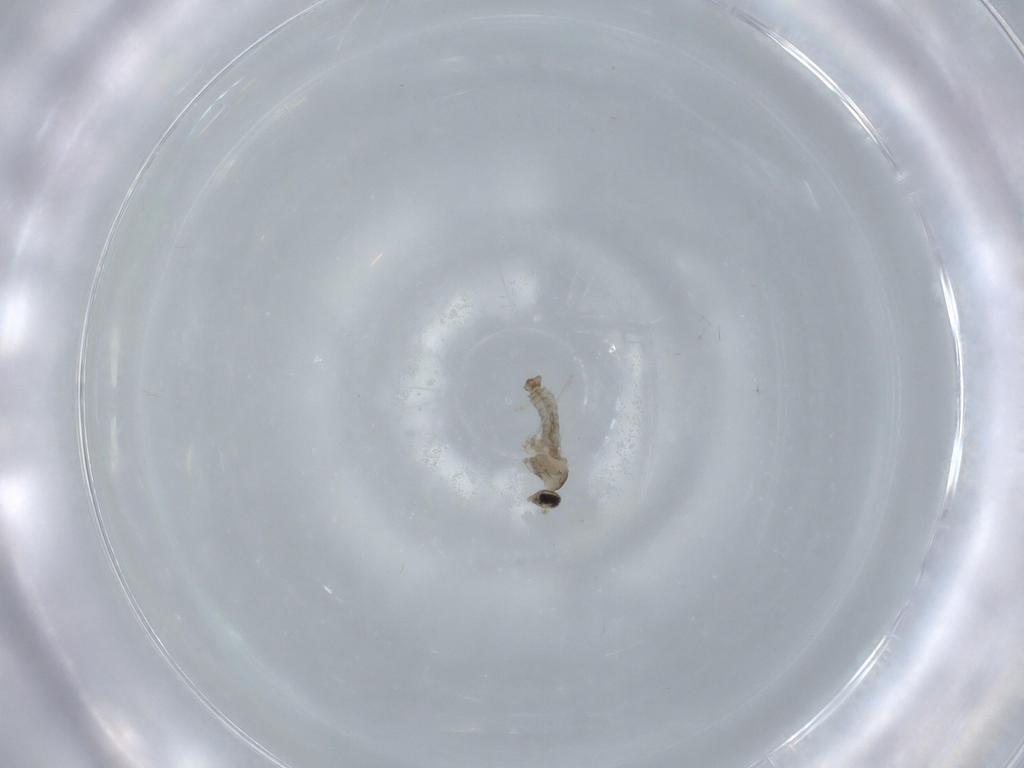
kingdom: Animalia
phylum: Arthropoda
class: Insecta
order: Diptera
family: Cecidomyiidae
